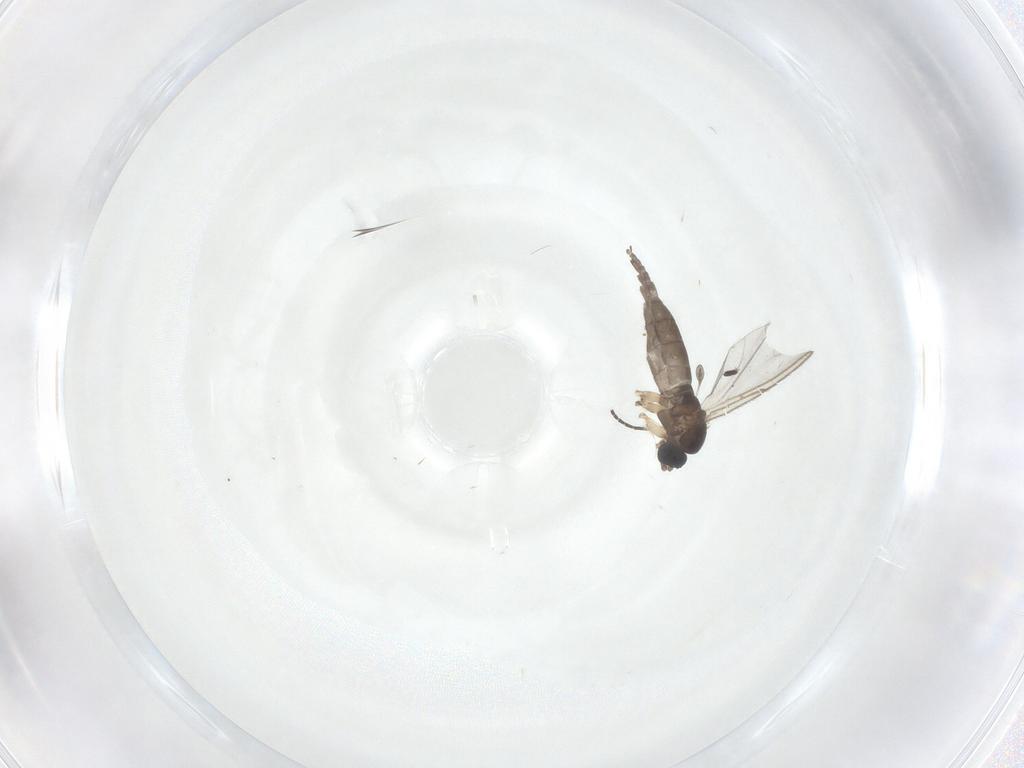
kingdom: Animalia
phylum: Arthropoda
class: Insecta
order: Diptera
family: Sciaridae
